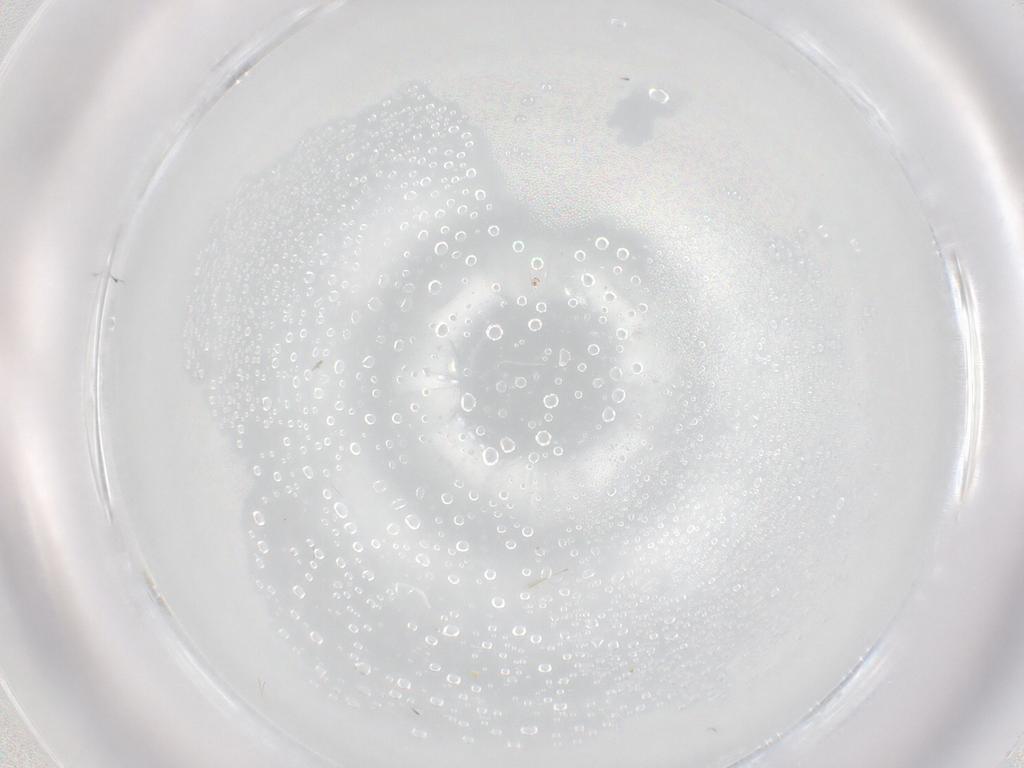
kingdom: Animalia
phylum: Arthropoda
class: Insecta
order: Hymenoptera
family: Mymaridae
